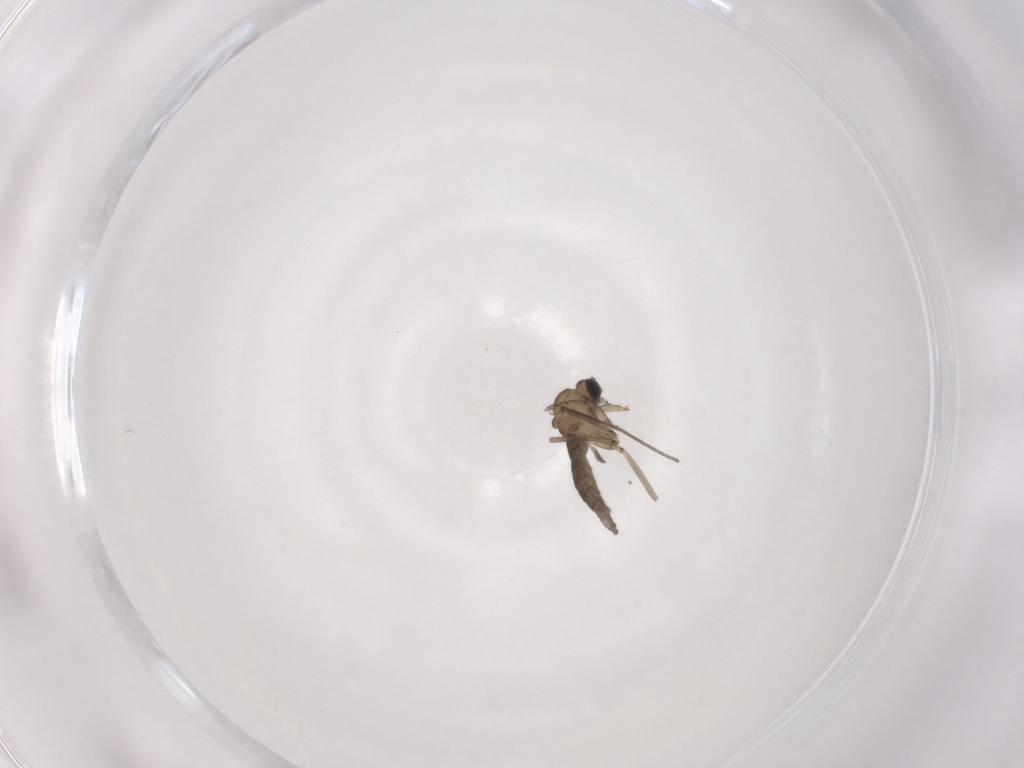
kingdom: Animalia
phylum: Arthropoda
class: Insecta
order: Diptera
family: Sciaridae
